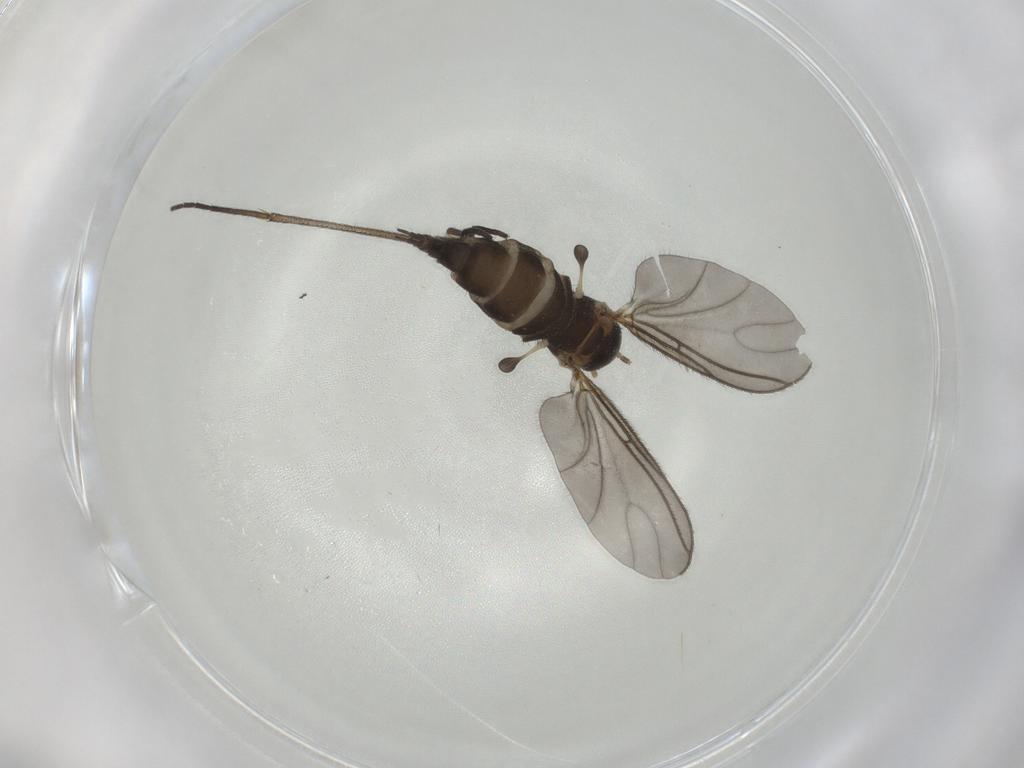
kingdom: Animalia
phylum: Arthropoda
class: Insecta
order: Diptera
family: Sciaridae
